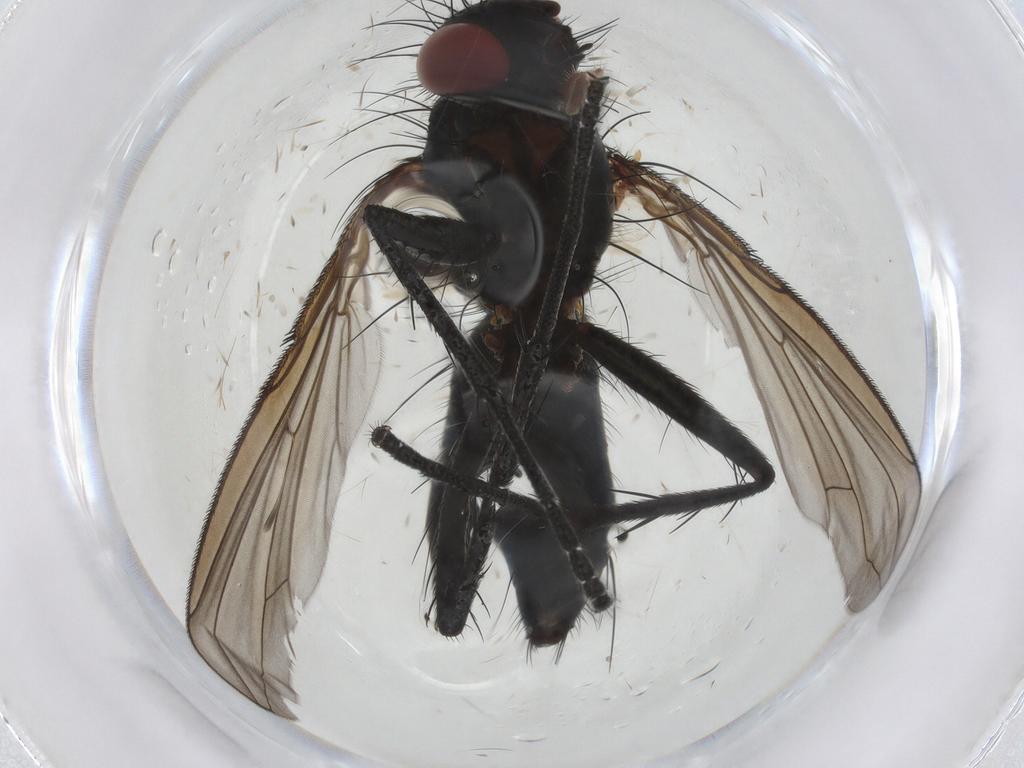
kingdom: Animalia
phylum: Arthropoda
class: Insecta
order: Diptera
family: Tachinidae
